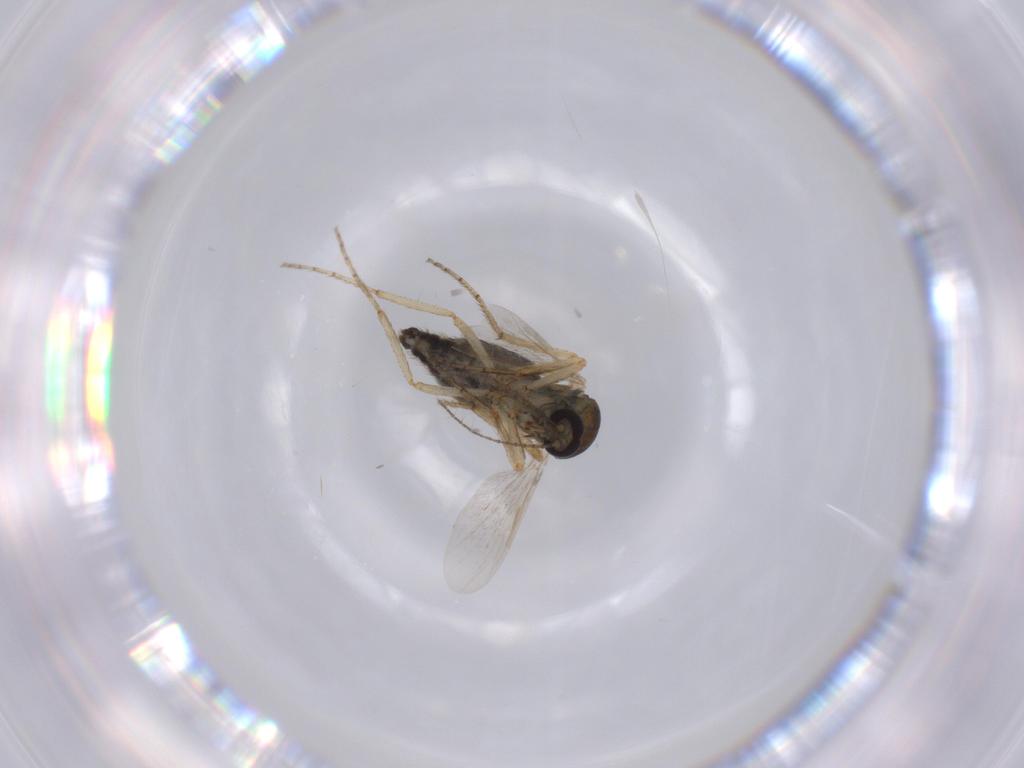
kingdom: Animalia
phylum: Arthropoda
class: Insecta
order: Diptera
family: Ceratopogonidae
